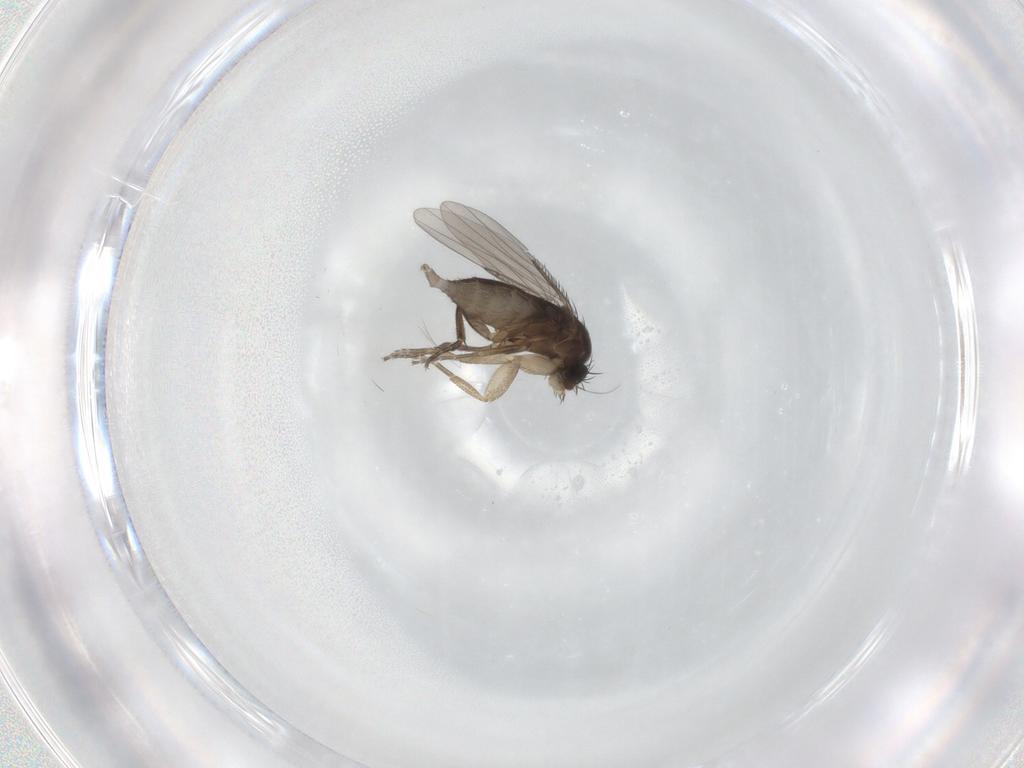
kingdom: Animalia
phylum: Arthropoda
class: Insecta
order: Diptera
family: Phoridae
